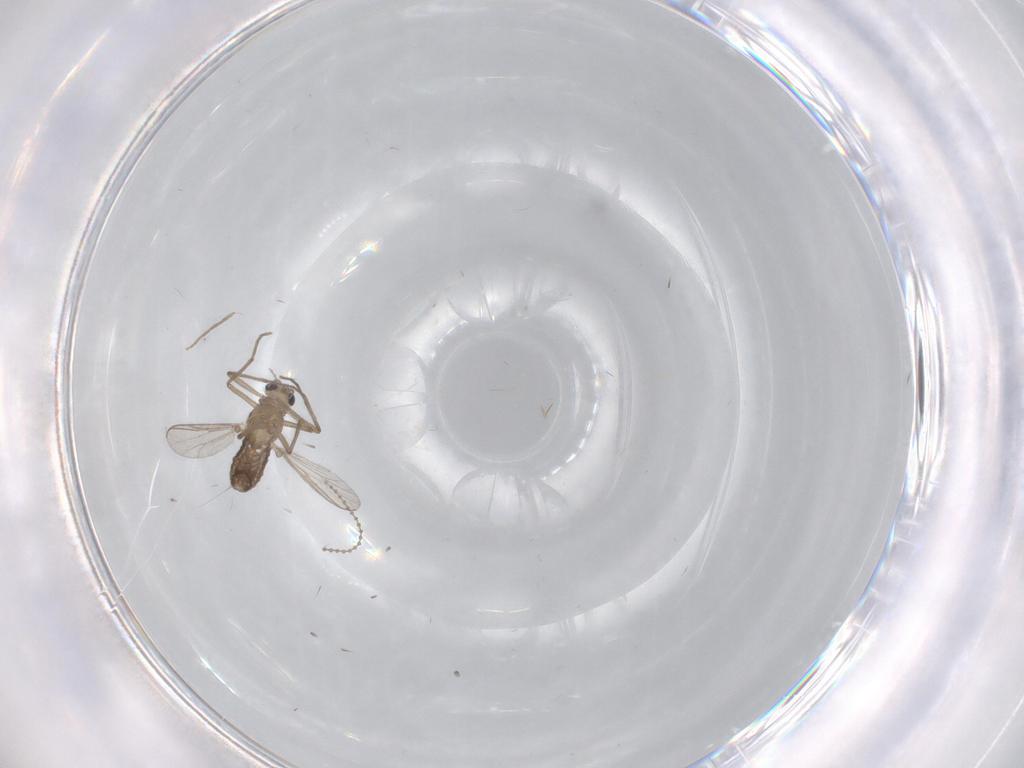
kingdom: Animalia
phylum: Arthropoda
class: Insecta
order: Diptera
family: Chironomidae
